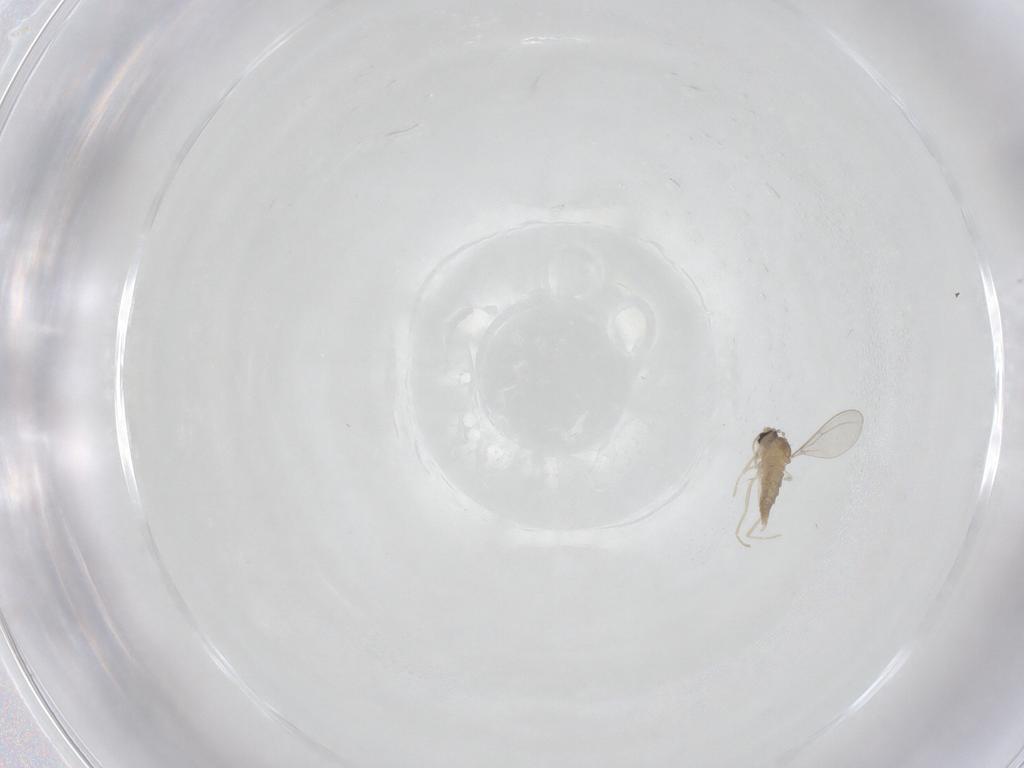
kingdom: Animalia
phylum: Arthropoda
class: Insecta
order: Diptera
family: Cecidomyiidae
